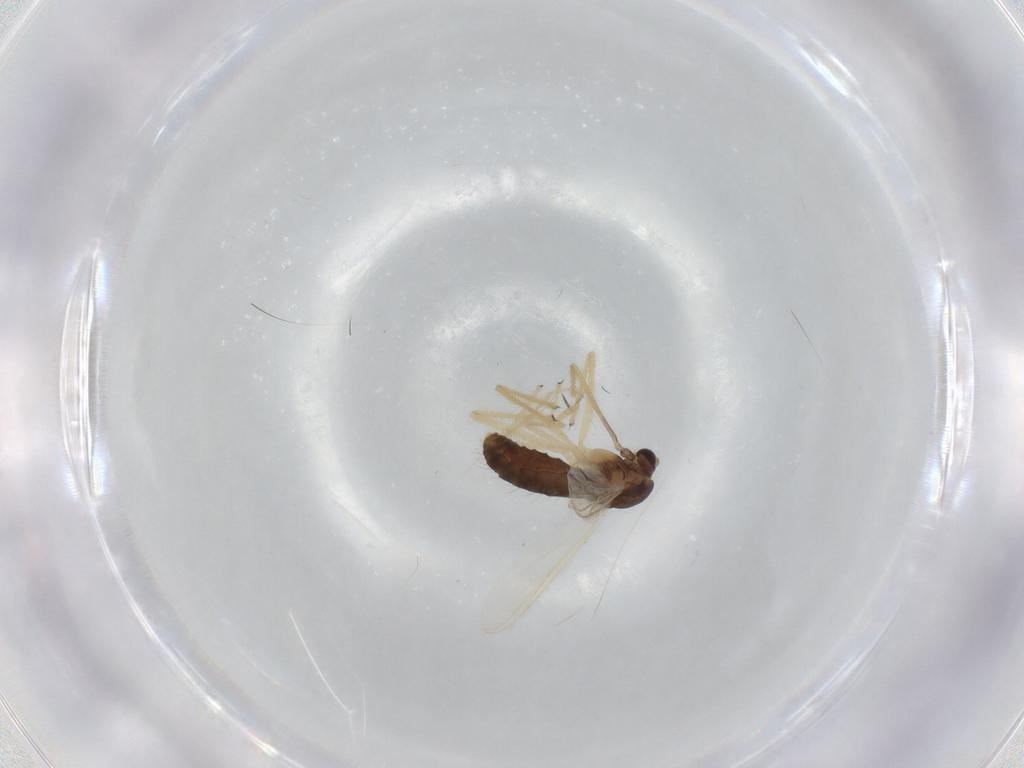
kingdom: Animalia
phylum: Arthropoda
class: Insecta
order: Diptera
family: Chironomidae
